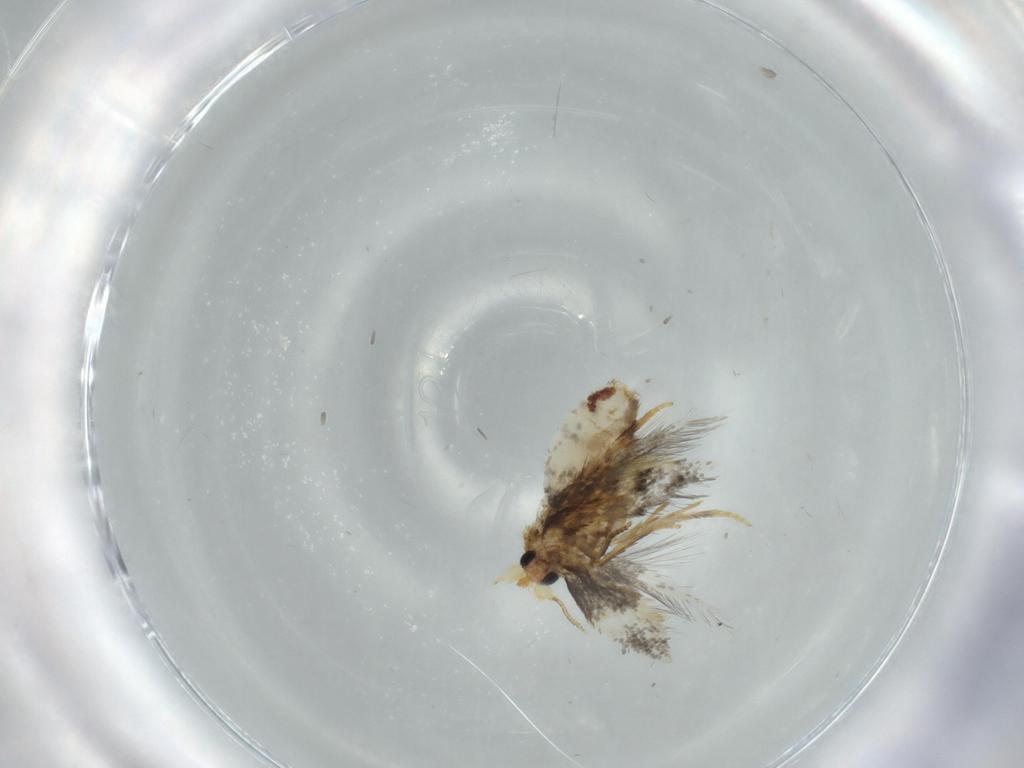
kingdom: Animalia
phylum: Arthropoda
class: Insecta
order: Lepidoptera
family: Nepticulidae
